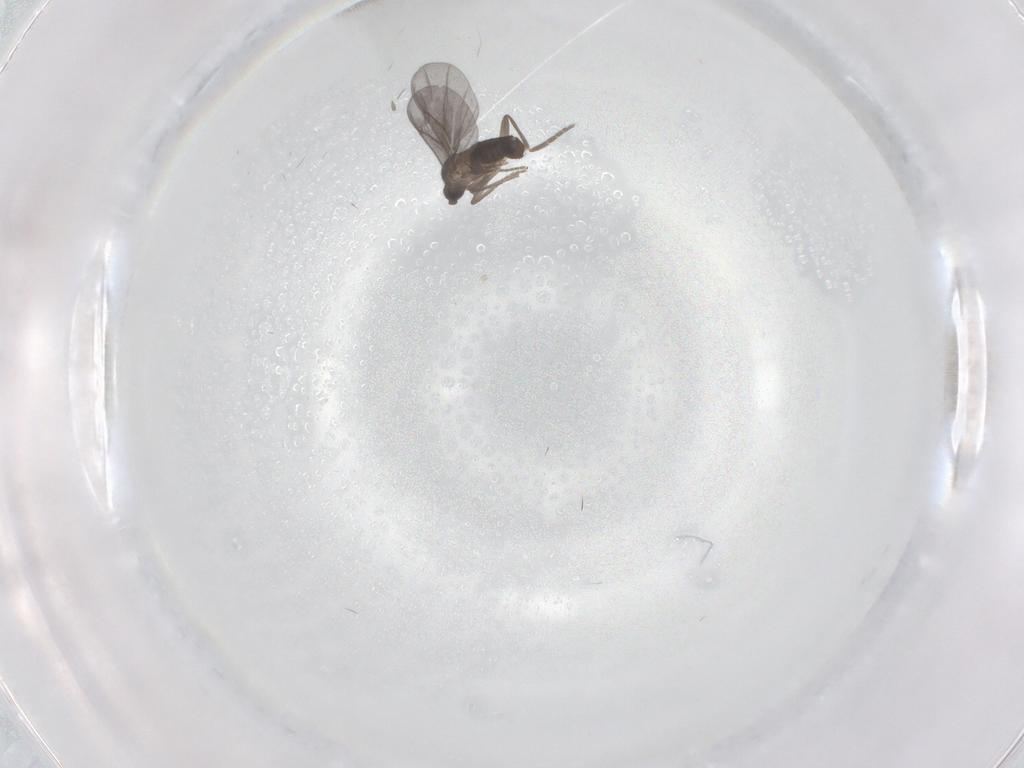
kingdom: Animalia
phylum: Arthropoda
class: Insecta
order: Diptera
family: Phoridae
